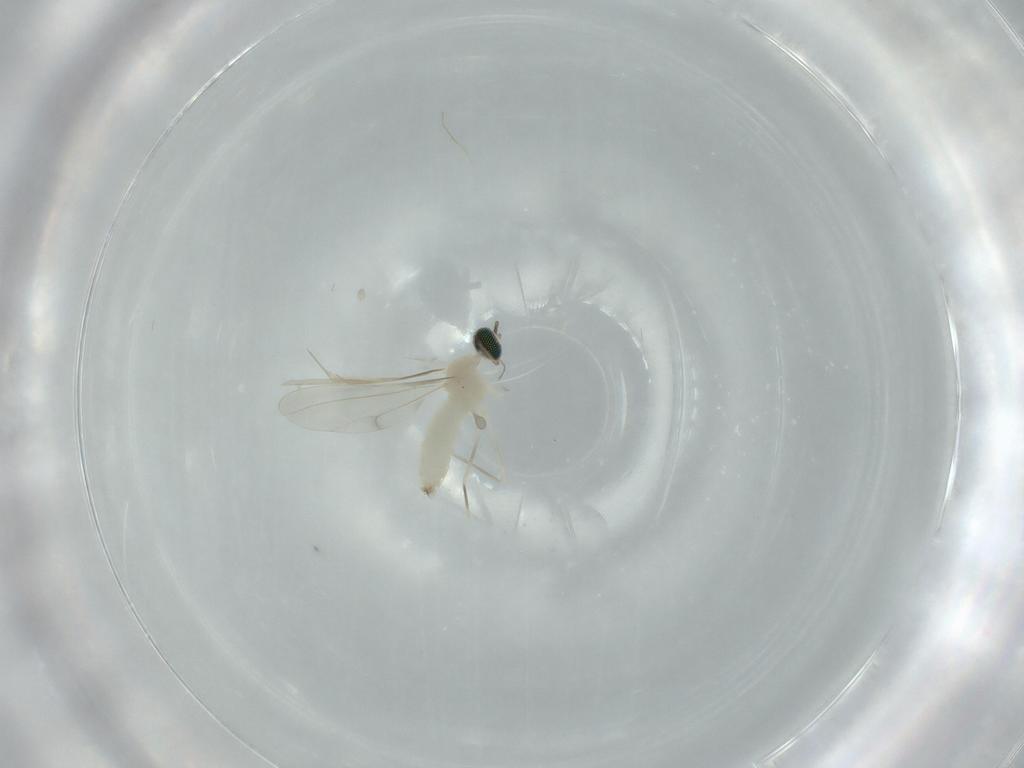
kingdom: Animalia
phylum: Arthropoda
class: Insecta
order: Diptera
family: Cecidomyiidae
